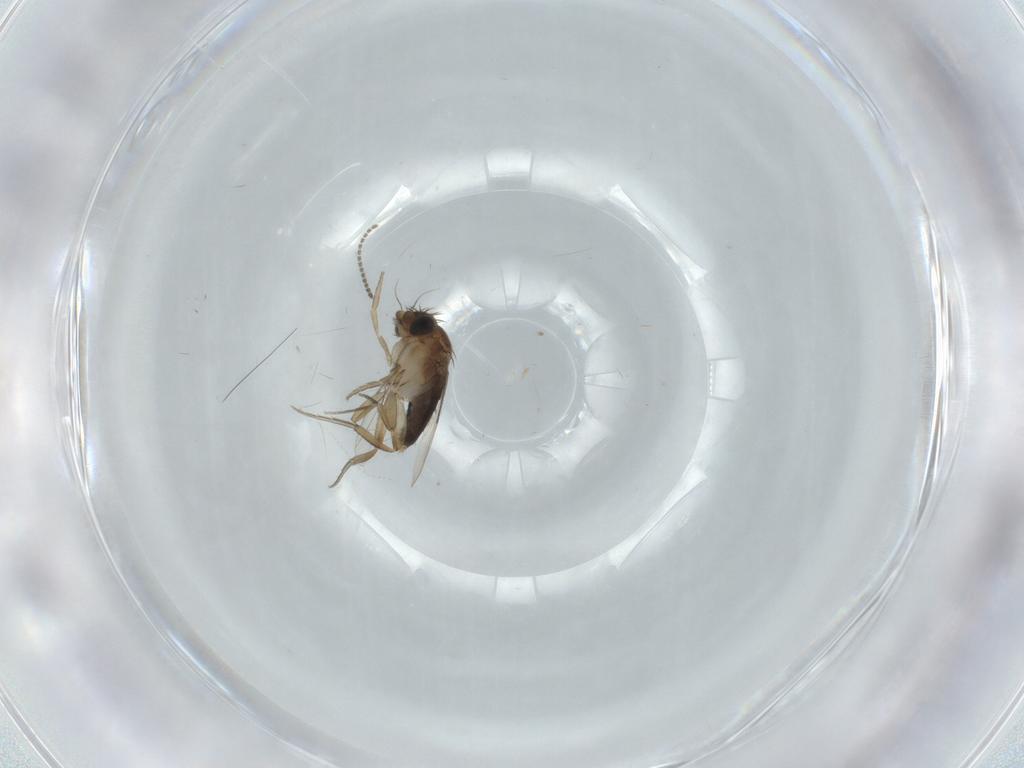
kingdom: Animalia
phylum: Arthropoda
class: Insecta
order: Diptera
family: Phoridae
